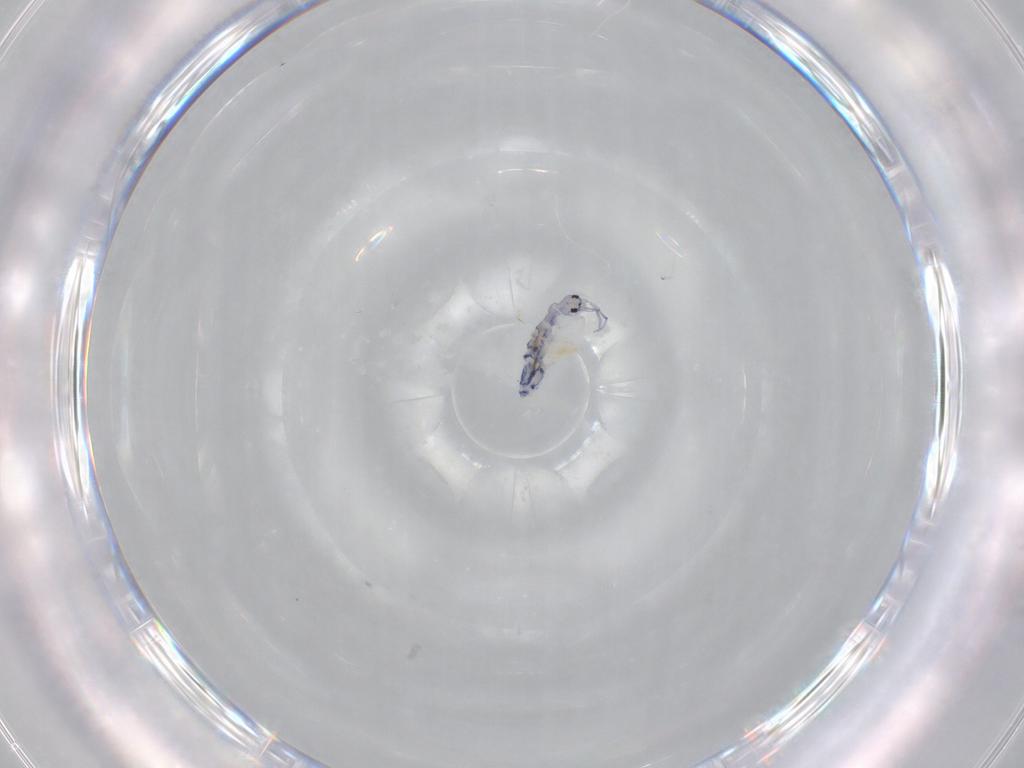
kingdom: Animalia
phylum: Arthropoda
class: Collembola
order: Entomobryomorpha
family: Entomobryidae
